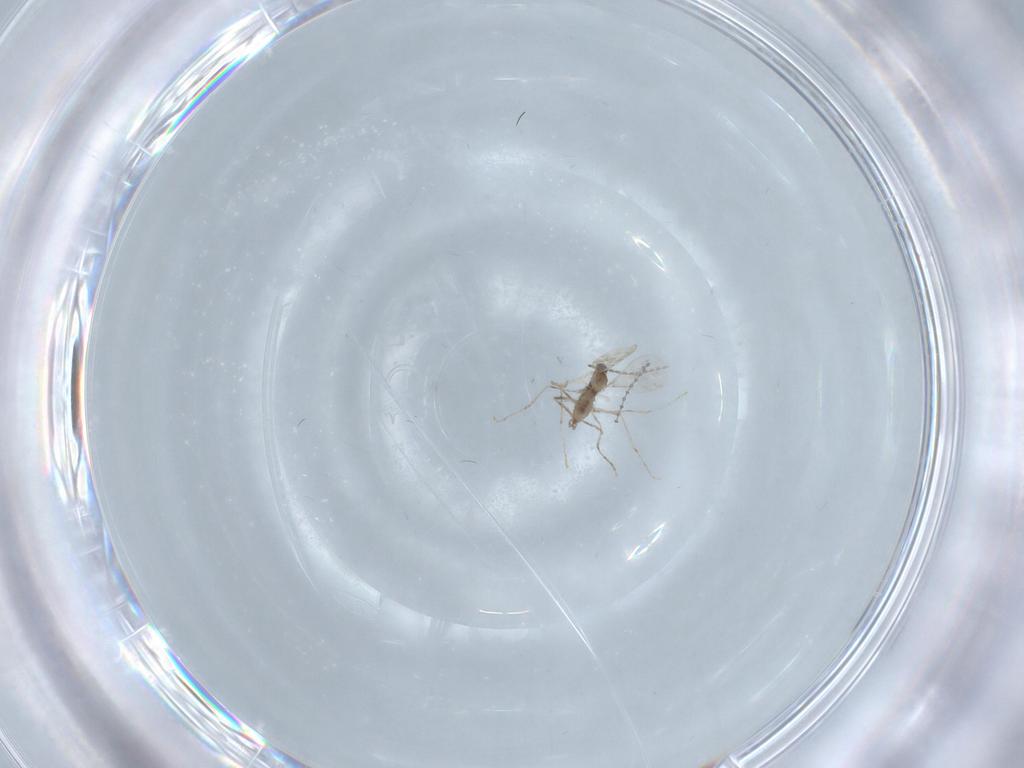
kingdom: Animalia
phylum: Arthropoda
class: Insecta
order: Diptera
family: Cecidomyiidae
